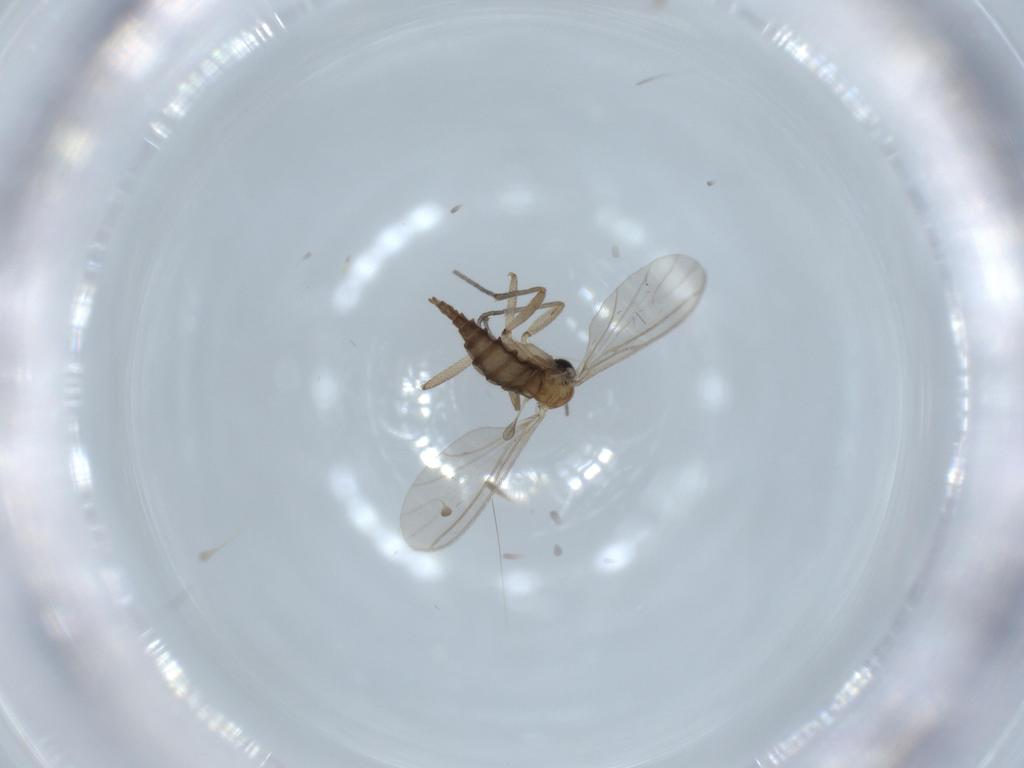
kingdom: Animalia
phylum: Arthropoda
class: Insecta
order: Diptera
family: Sciaridae
